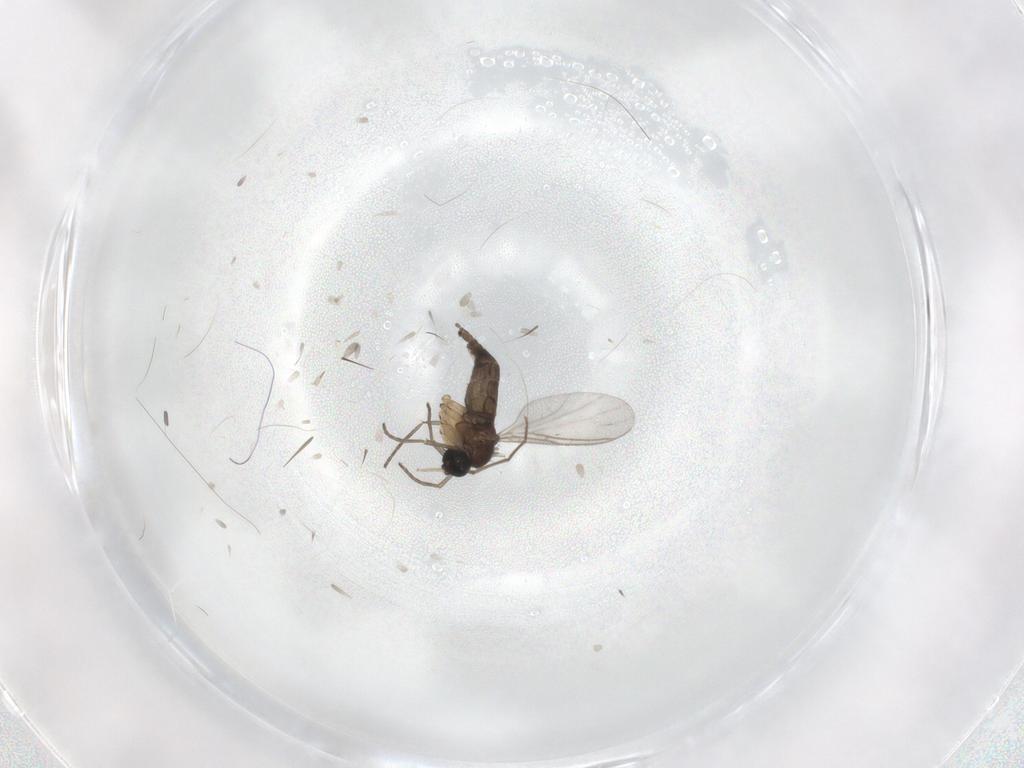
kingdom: Animalia
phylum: Arthropoda
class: Insecta
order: Diptera
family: Sciaridae
